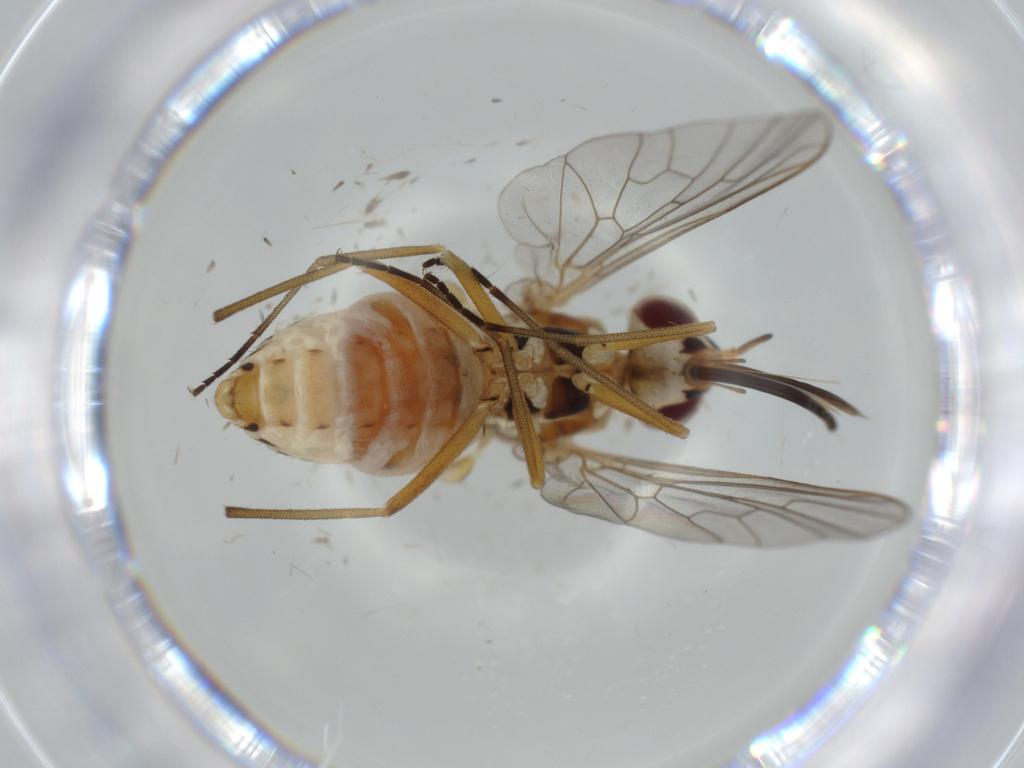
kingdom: Animalia
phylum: Arthropoda
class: Insecta
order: Diptera
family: Bombyliidae
